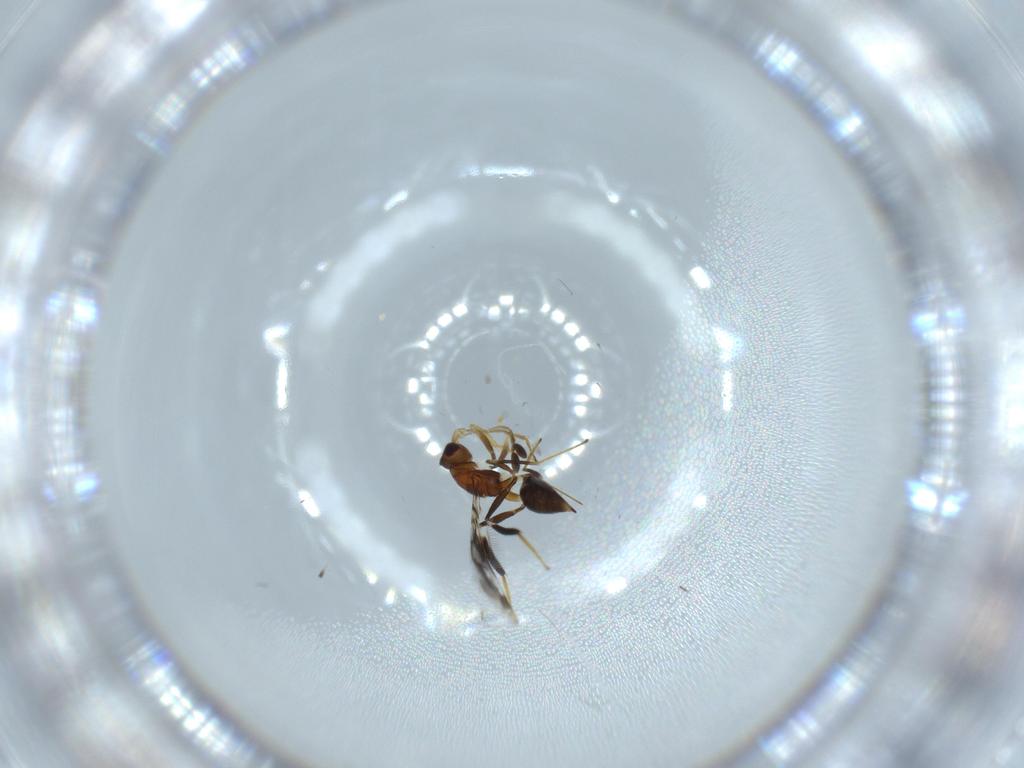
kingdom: Animalia
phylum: Arthropoda
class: Insecta
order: Hymenoptera
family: Mymaridae
